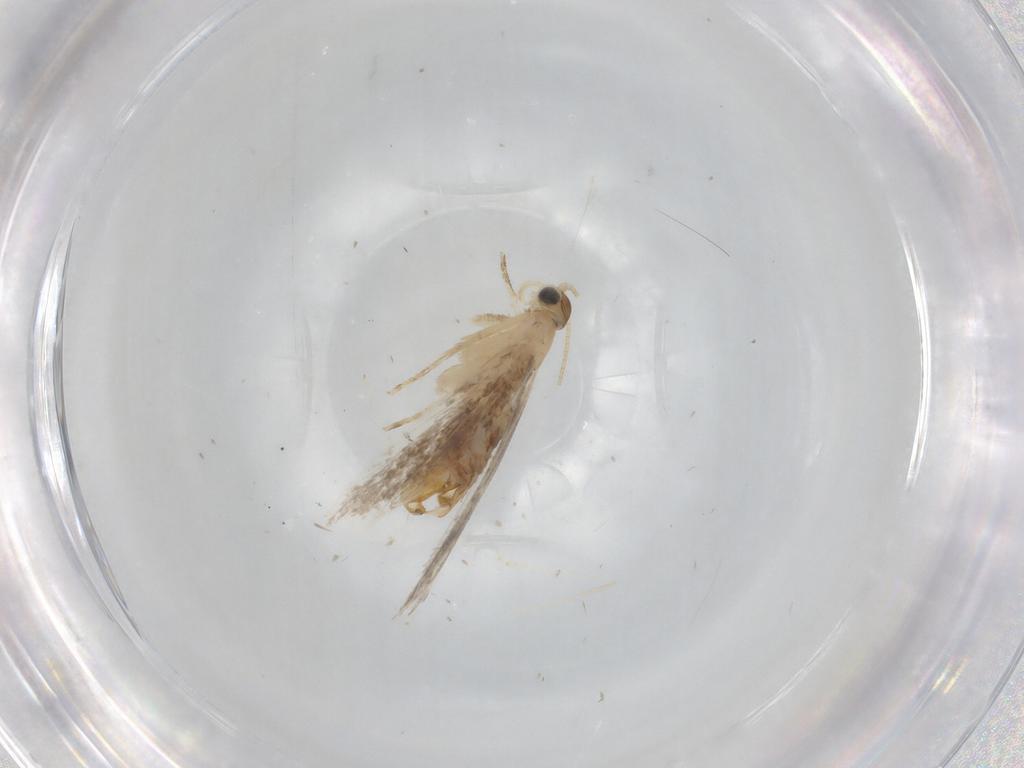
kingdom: Animalia
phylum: Arthropoda
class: Insecta
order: Lepidoptera
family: Dryadaulidae
